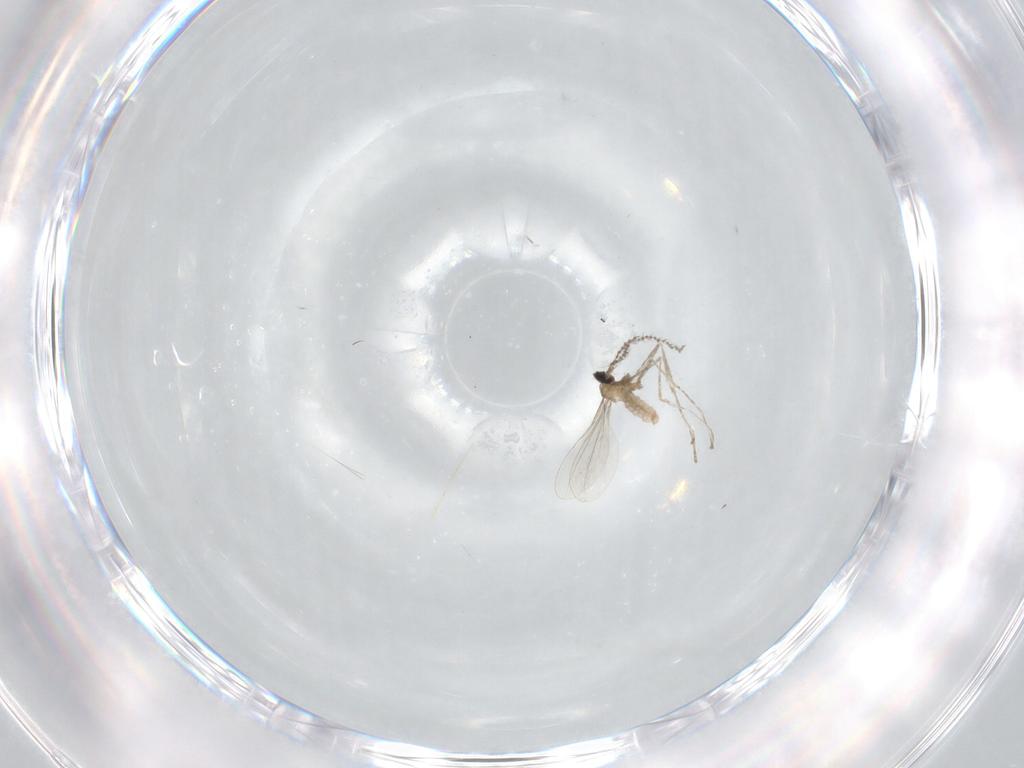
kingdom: Animalia
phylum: Arthropoda
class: Insecta
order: Diptera
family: Cecidomyiidae
